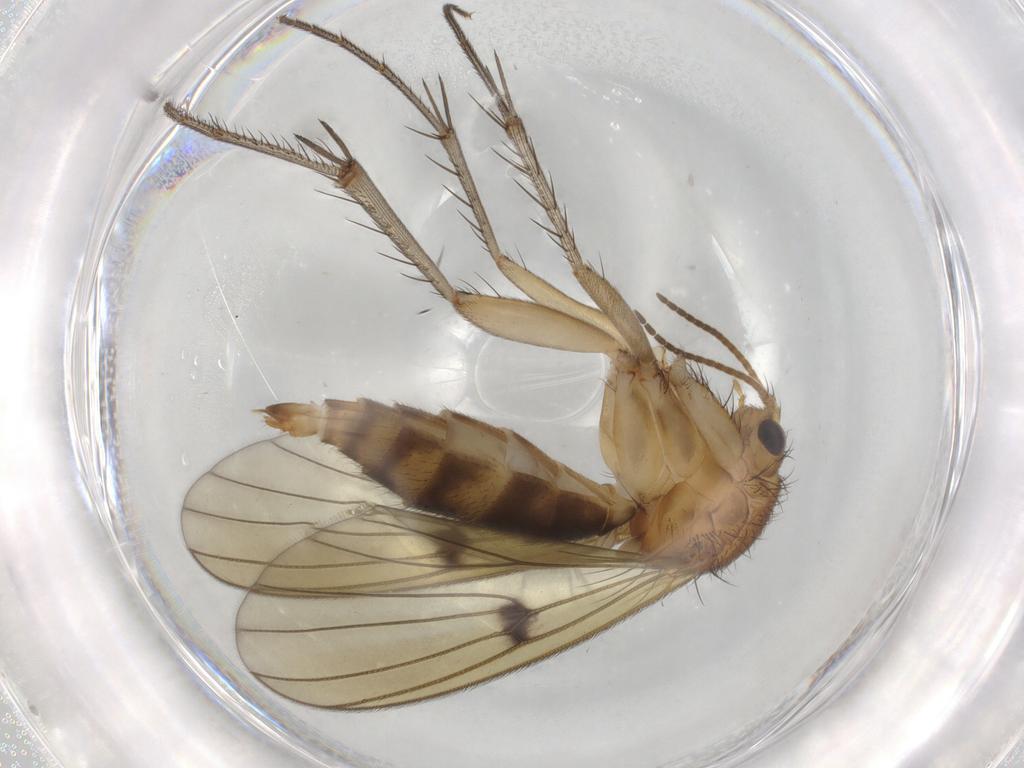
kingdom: Animalia
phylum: Arthropoda
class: Insecta
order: Diptera
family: Mycetophilidae
